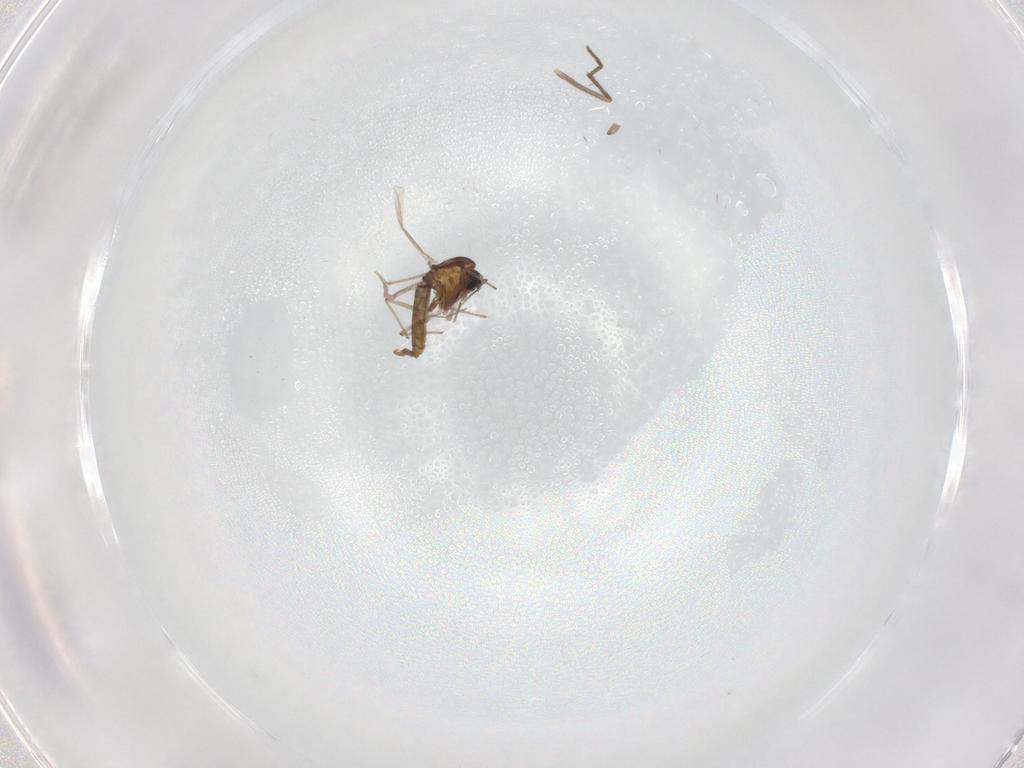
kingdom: Animalia
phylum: Arthropoda
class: Insecta
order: Diptera
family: Chironomidae
